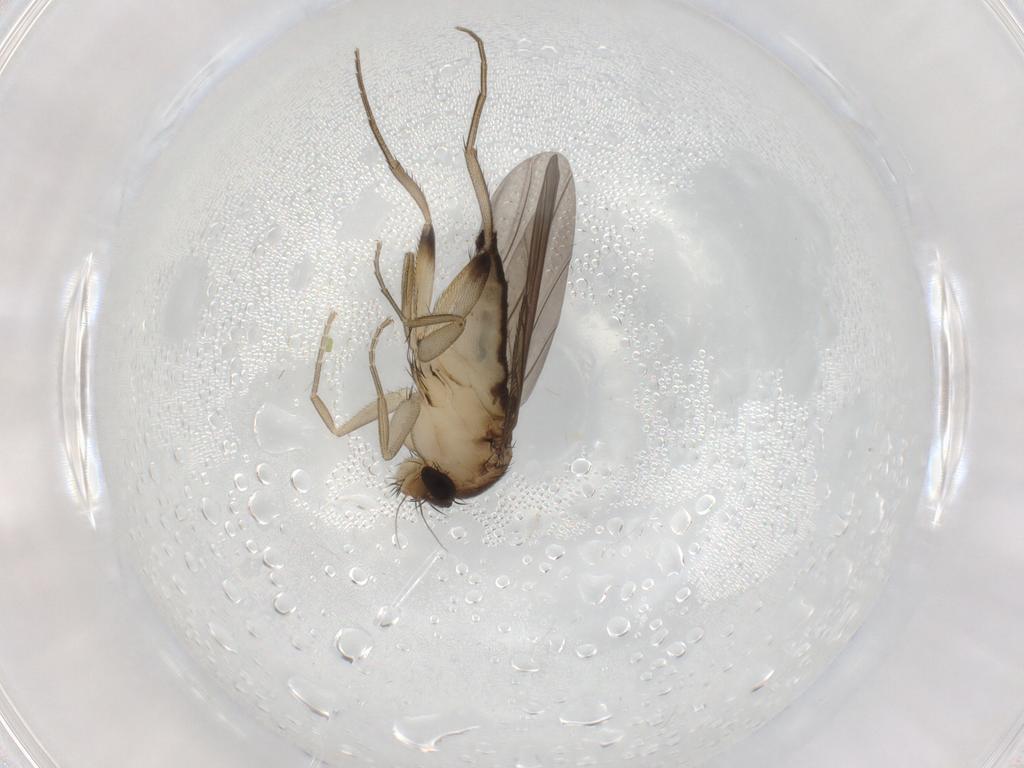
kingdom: Animalia
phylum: Arthropoda
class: Insecta
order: Diptera
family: Phoridae
